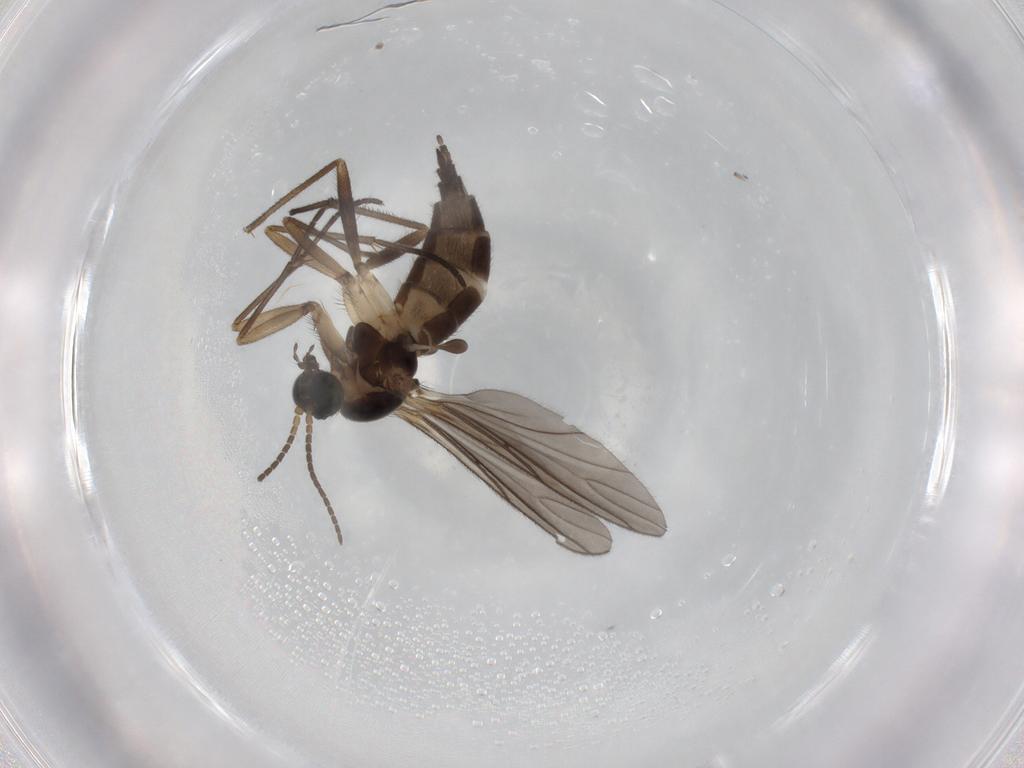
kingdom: Animalia
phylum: Arthropoda
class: Insecta
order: Diptera
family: Sciaridae
